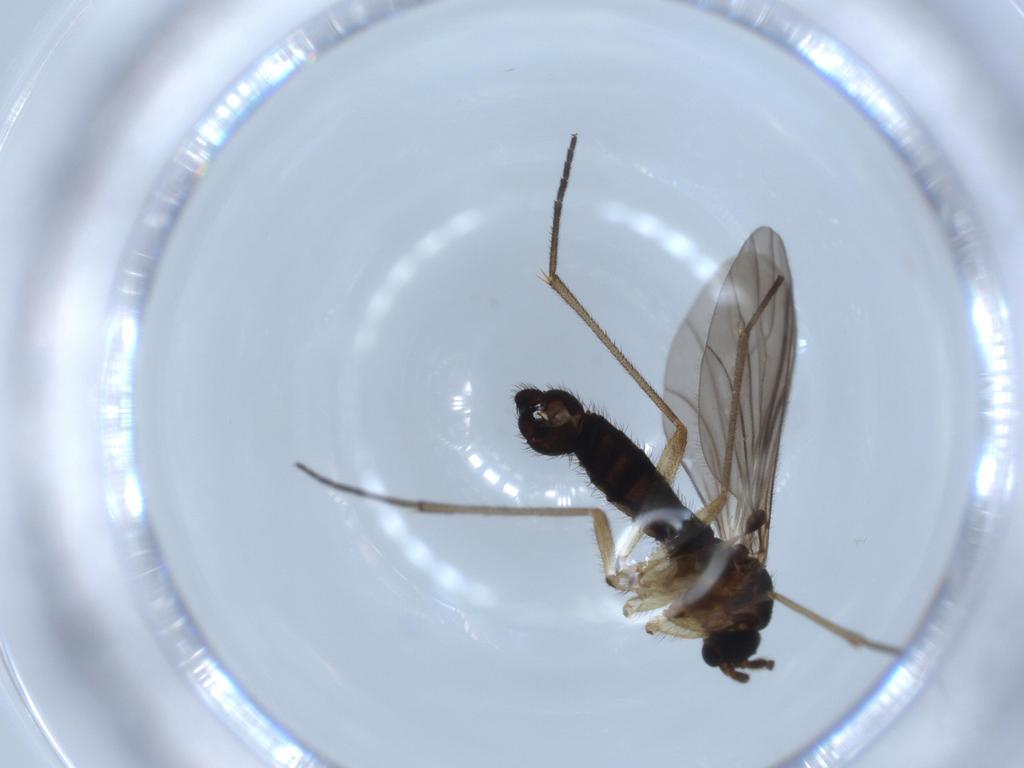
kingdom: Animalia
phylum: Arthropoda
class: Insecta
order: Diptera
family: Sciaridae
